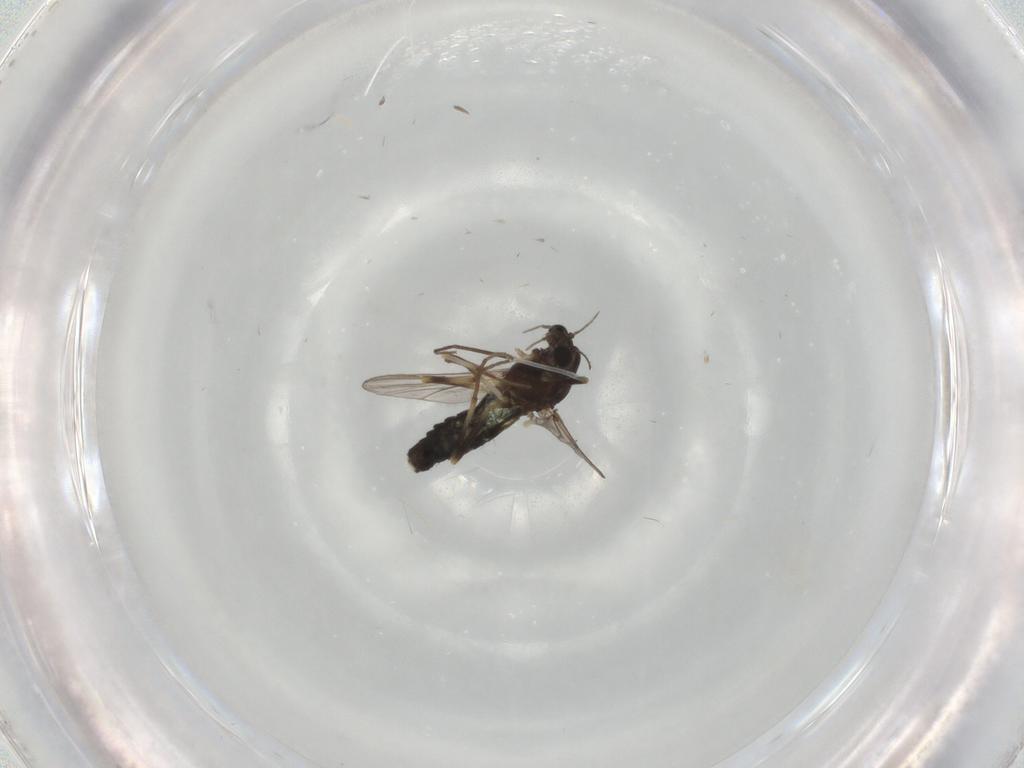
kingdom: Animalia
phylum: Arthropoda
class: Insecta
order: Diptera
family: Chironomidae
